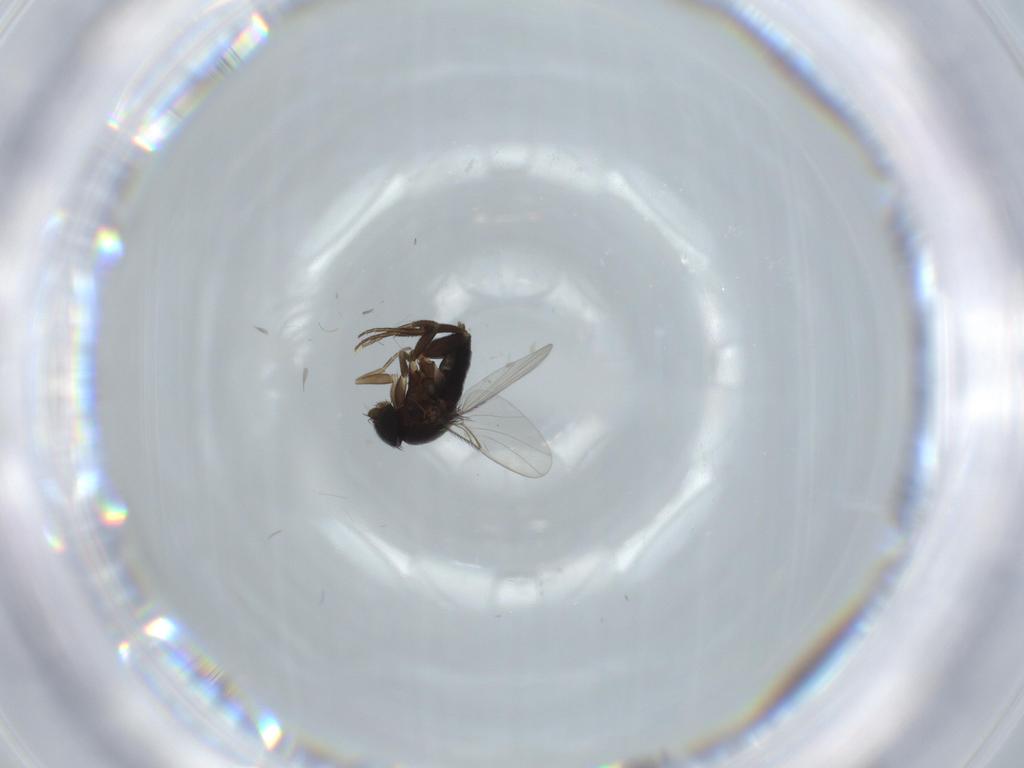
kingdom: Animalia
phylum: Arthropoda
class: Insecta
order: Diptera
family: Phoridae
